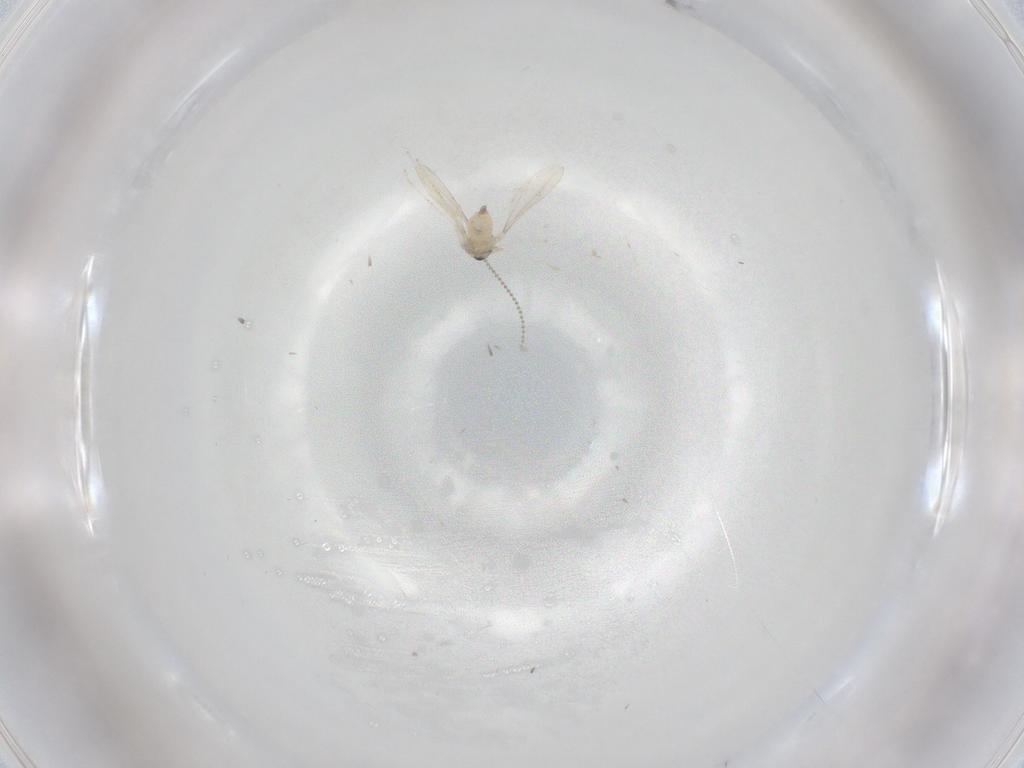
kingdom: Animalia
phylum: Arthropoda
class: Insecta
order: Diptera
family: Cecidomyiidae
